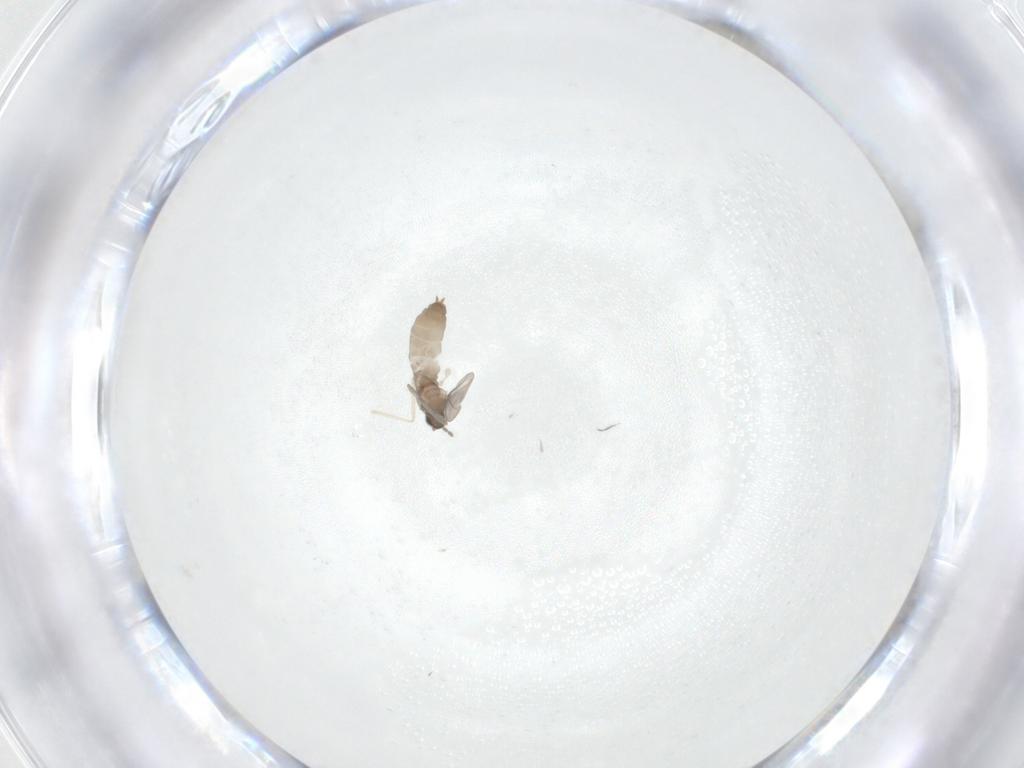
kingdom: Animalia
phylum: Arthropoda
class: Insecta
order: Diptera
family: Cecidomyiidae
